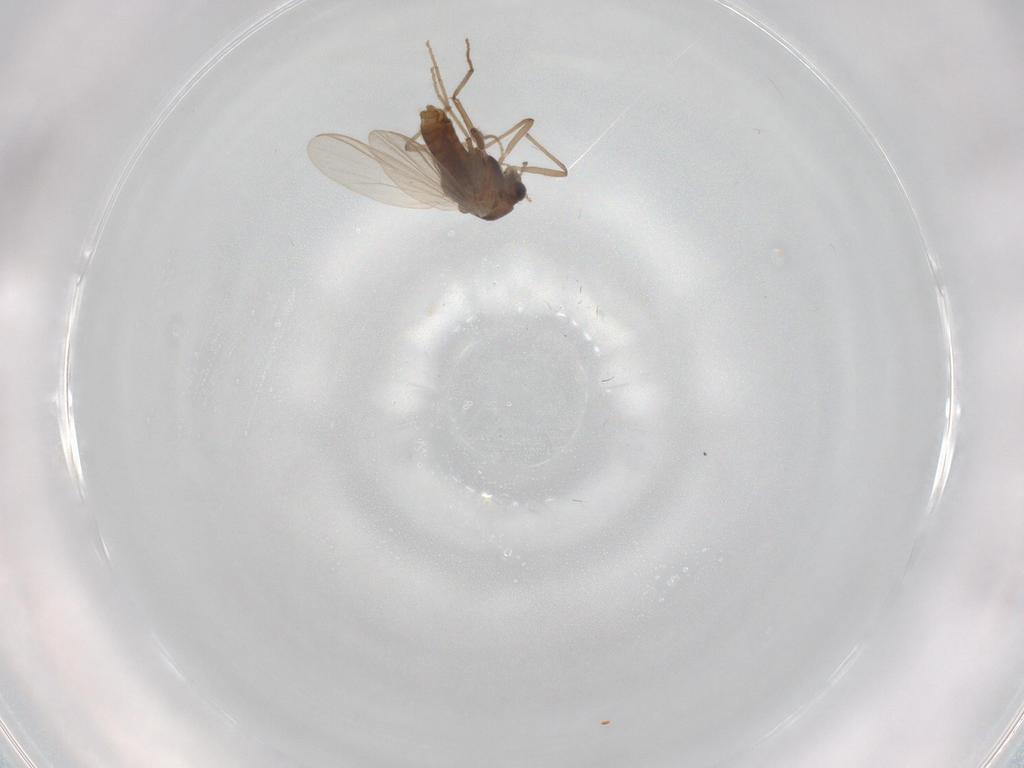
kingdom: Animalia
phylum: Arthropoda
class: Insecta
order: Diptera
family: Chironomidae
